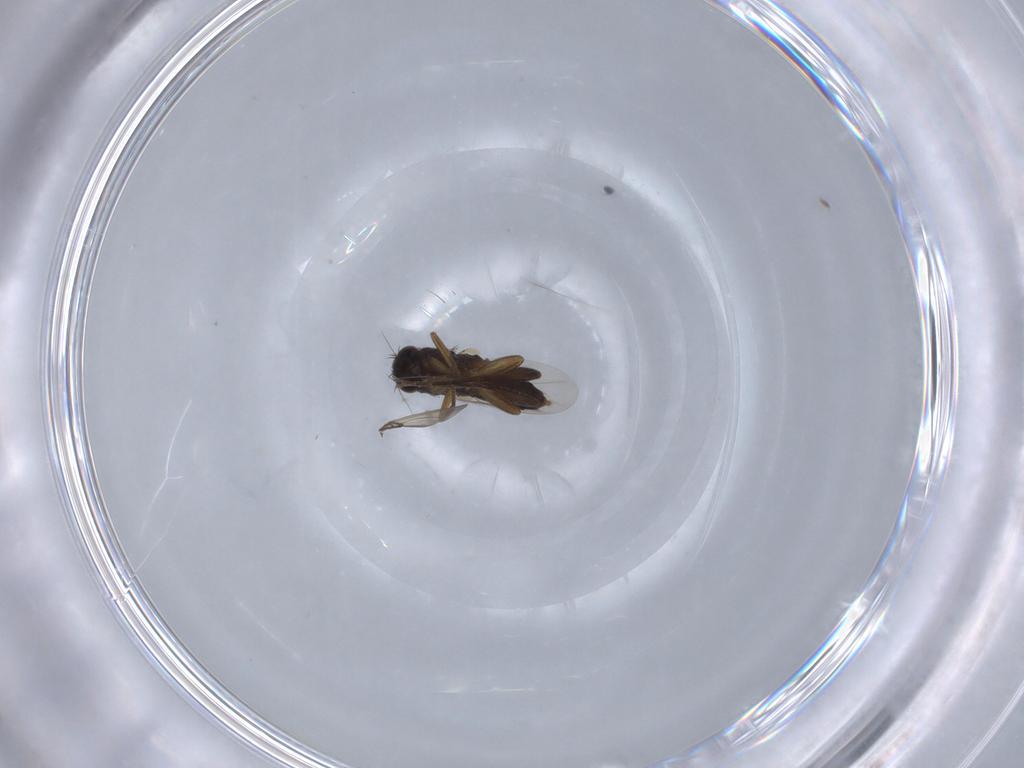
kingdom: Animalia
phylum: Arthropoda
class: Insecta
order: Diptera
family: Phoridae
